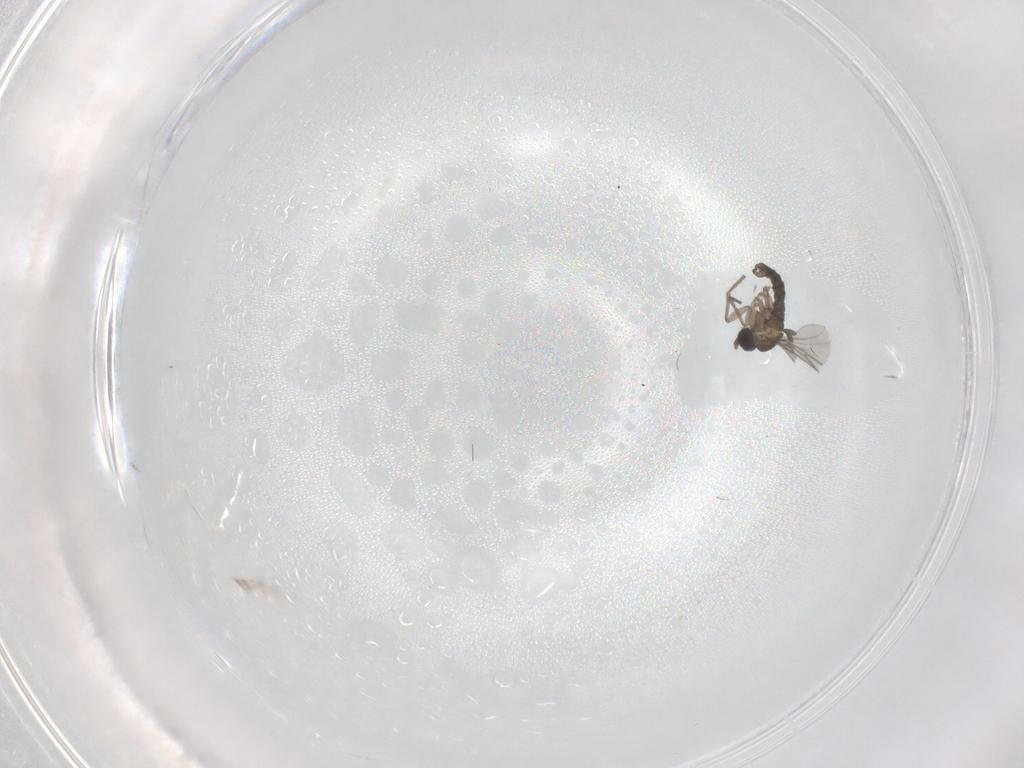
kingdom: Animalia
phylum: Arthropoda
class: Insecta
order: Diptera
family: Sciaridae
